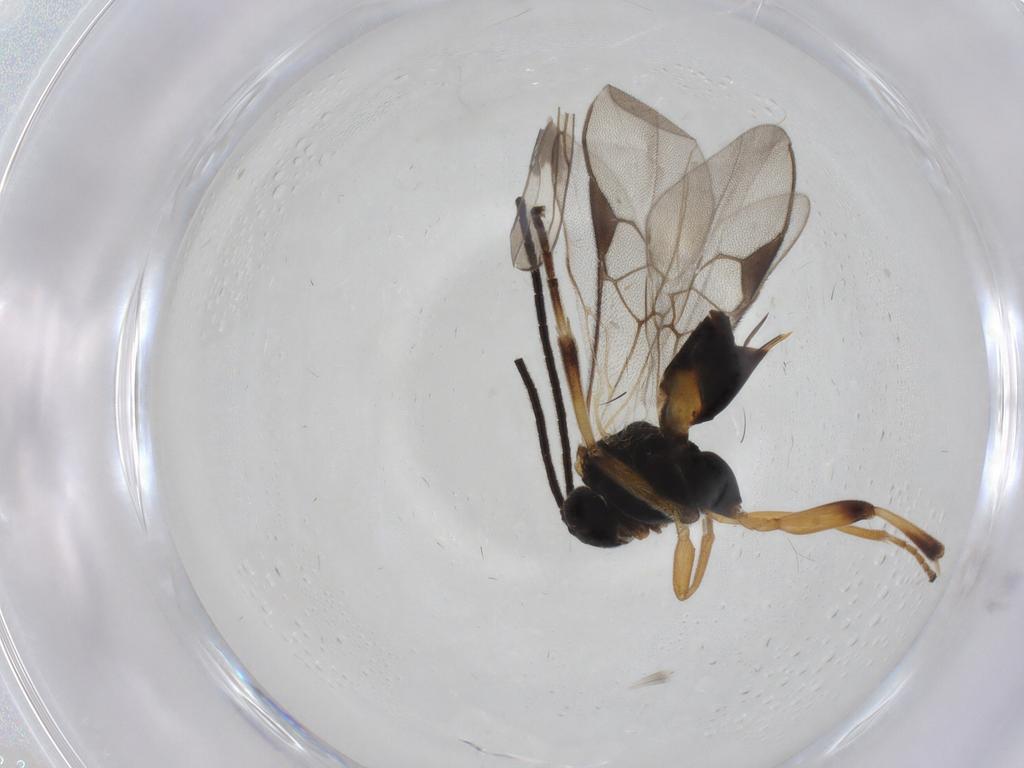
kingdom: Animalia
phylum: Arthropoda
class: Insecta
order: Hymenoptera
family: Braconidae
